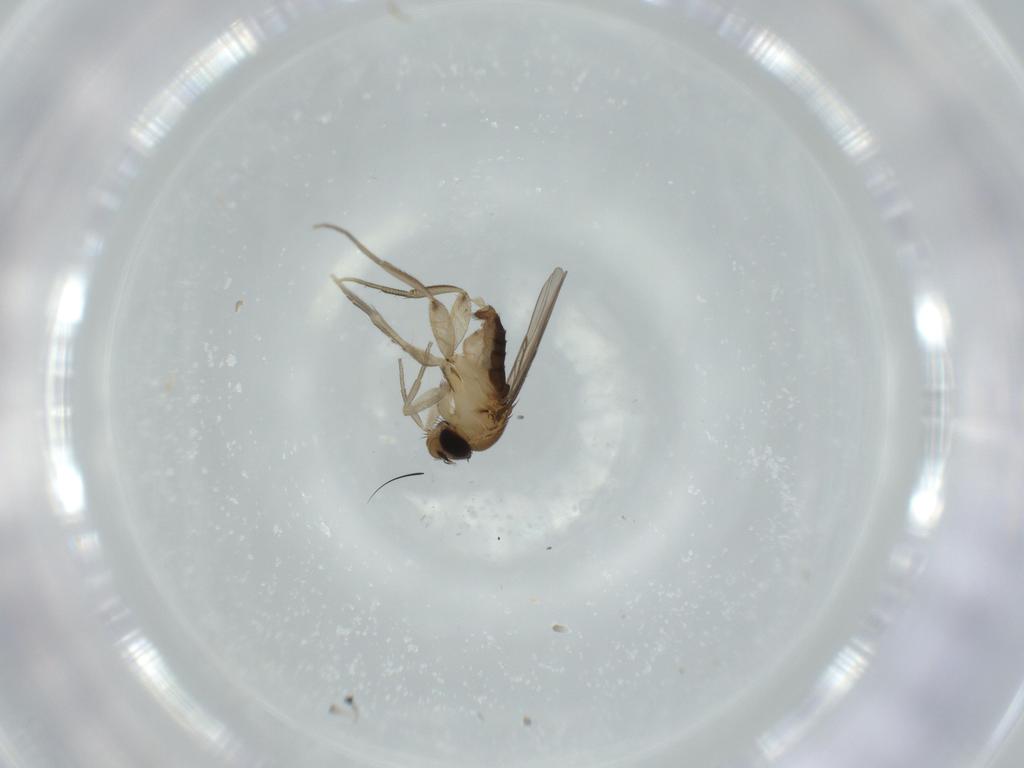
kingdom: Animalia
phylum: Arthropoda
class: Insecta
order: Diptera
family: Phoridae
